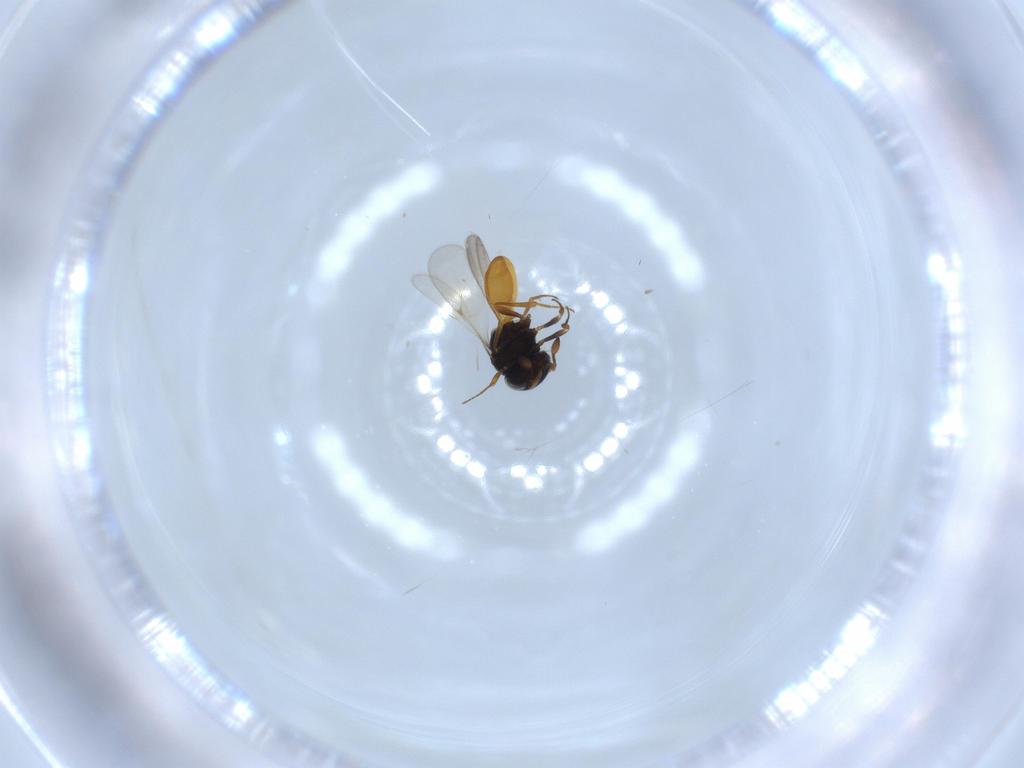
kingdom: Animalia
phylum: Arthropoda
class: Insecta
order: Hymenoptera
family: Scelionidae
